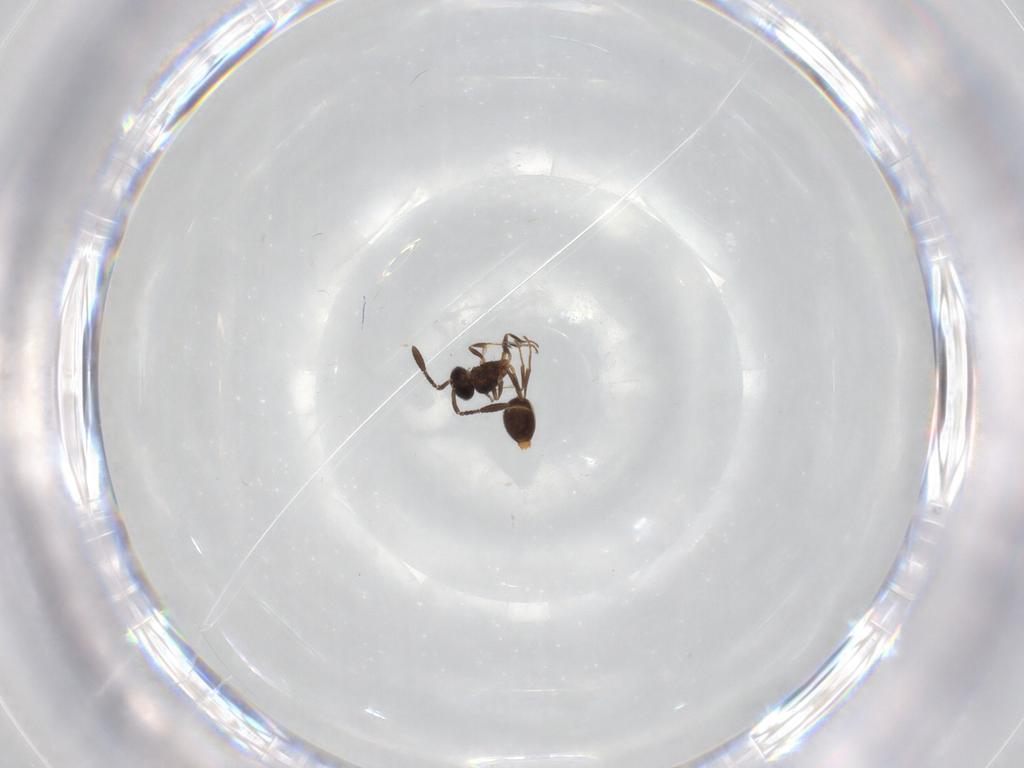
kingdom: Animalia
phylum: Arthropoda
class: Insecta
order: Hymenoptera
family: Scelionidae
